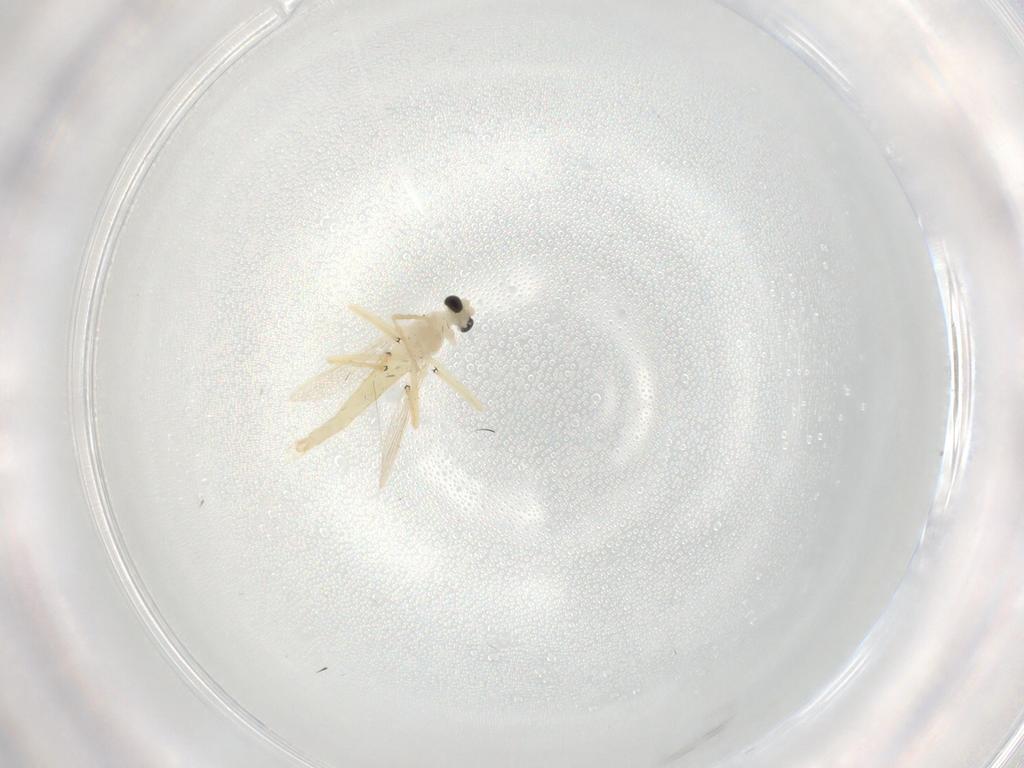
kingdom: Animalia
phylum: Arthropoda
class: Insecta
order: Diptera
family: Chironomidae
